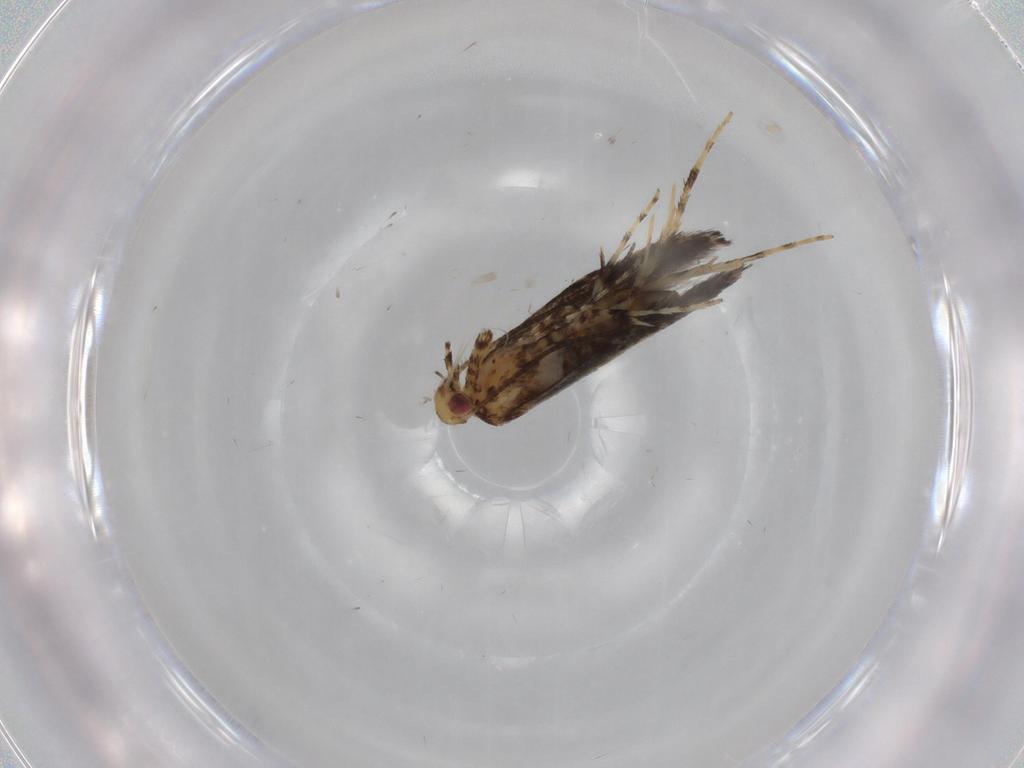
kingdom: Animalia
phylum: Arthropoda
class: Insecta
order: Lepidoptera
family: Gracillariidae
